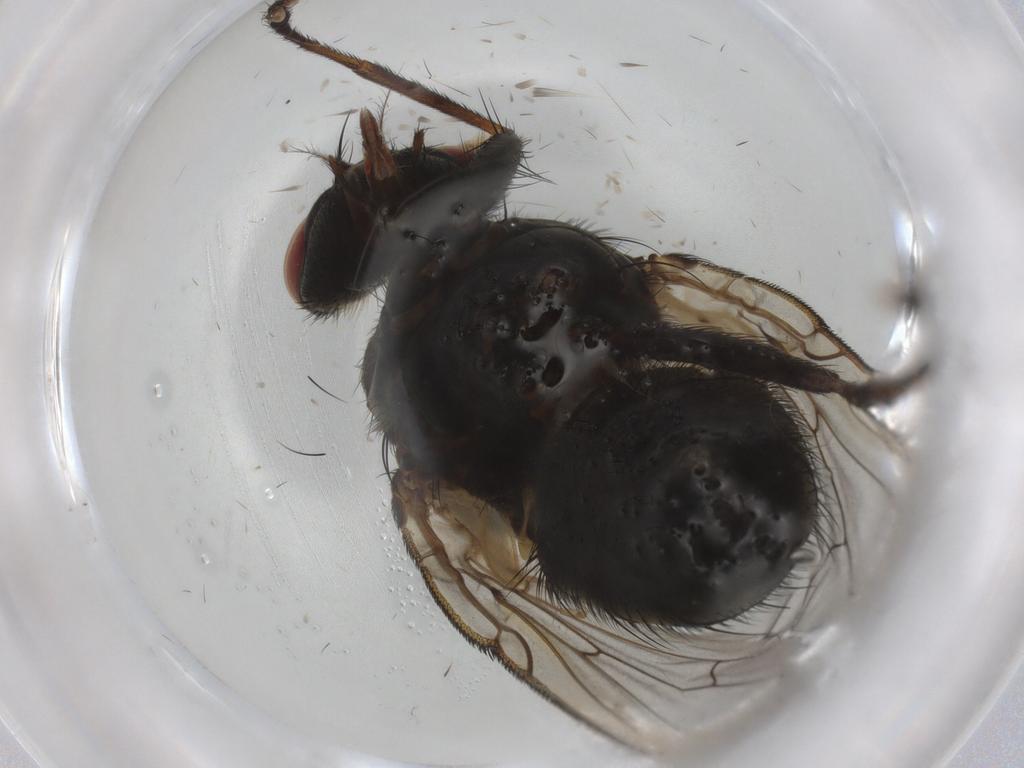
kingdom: Animalia
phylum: Arthropoda
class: Insecta
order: Diptera
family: Calliphoridae
